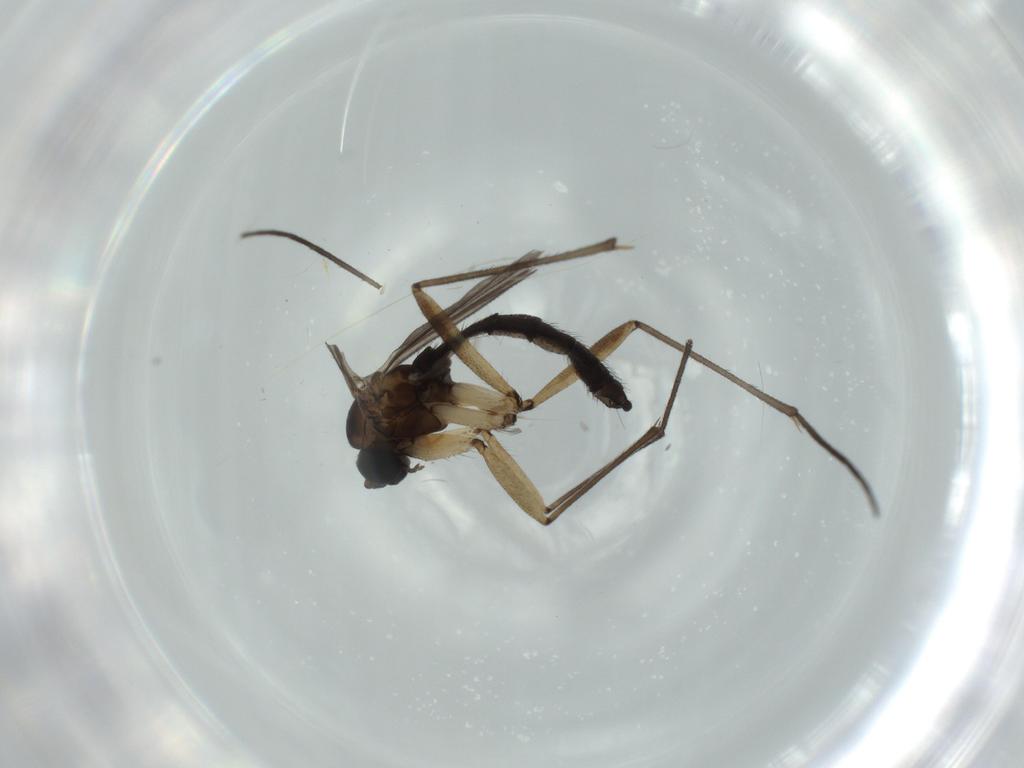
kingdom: Animalia
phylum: Arthropoda
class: Insecta
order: Diptera
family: Sciaridae
